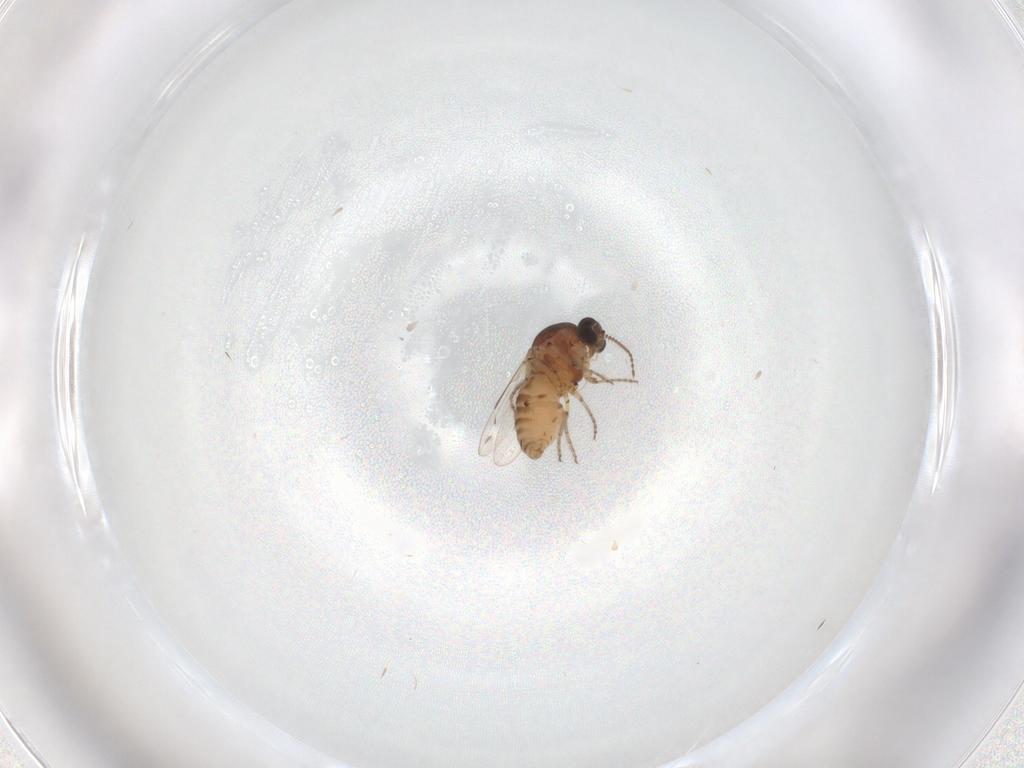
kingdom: Animalia
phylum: Arthropoda
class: Insecta
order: Diptera
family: Ceratopogonidae
